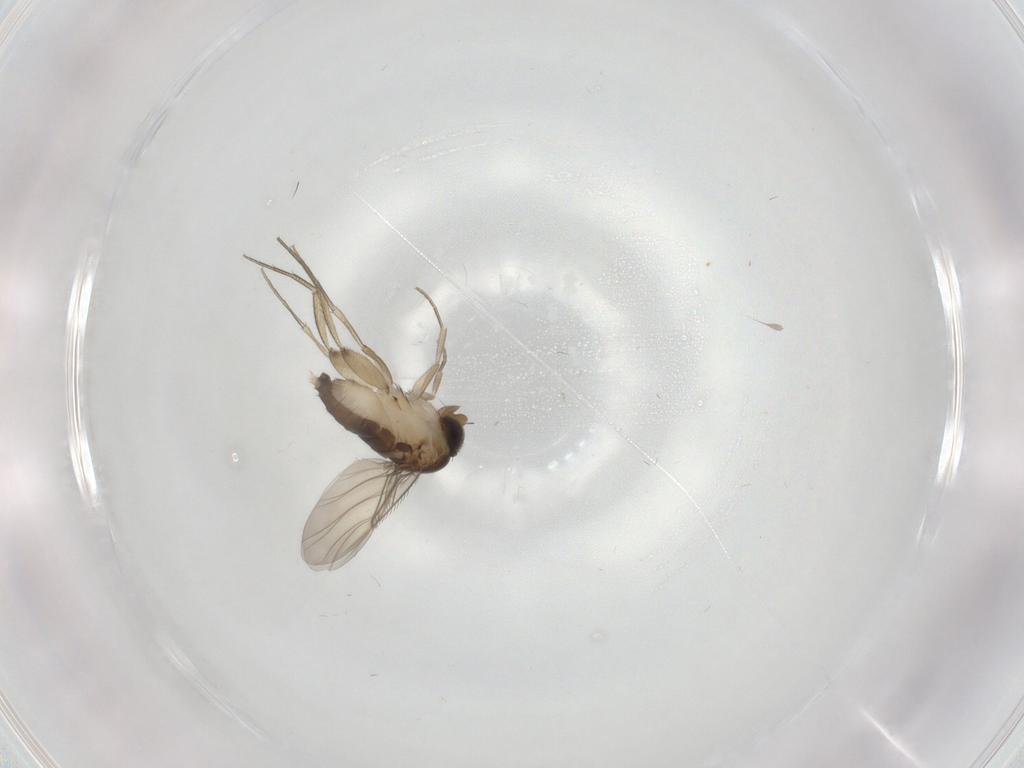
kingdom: Animalia
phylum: Arthropoda
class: Insecta
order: Diptera
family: Phoridae
